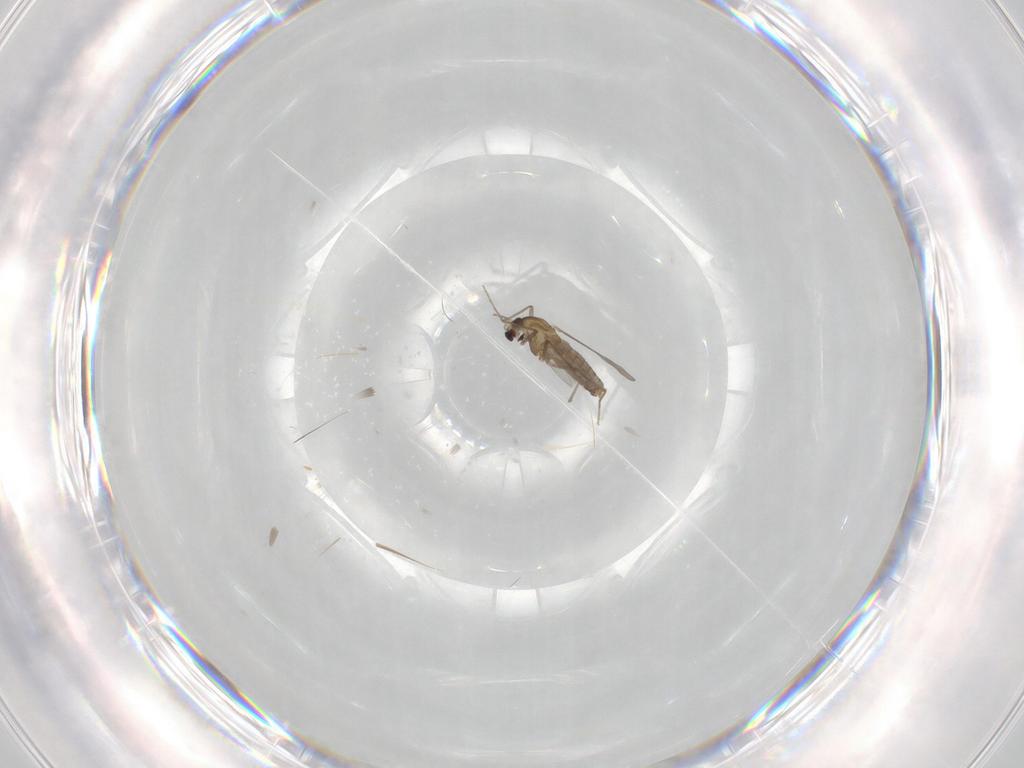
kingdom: Animalia
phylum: Arthropoda
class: Insecta
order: Diptera
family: Chironomidae
